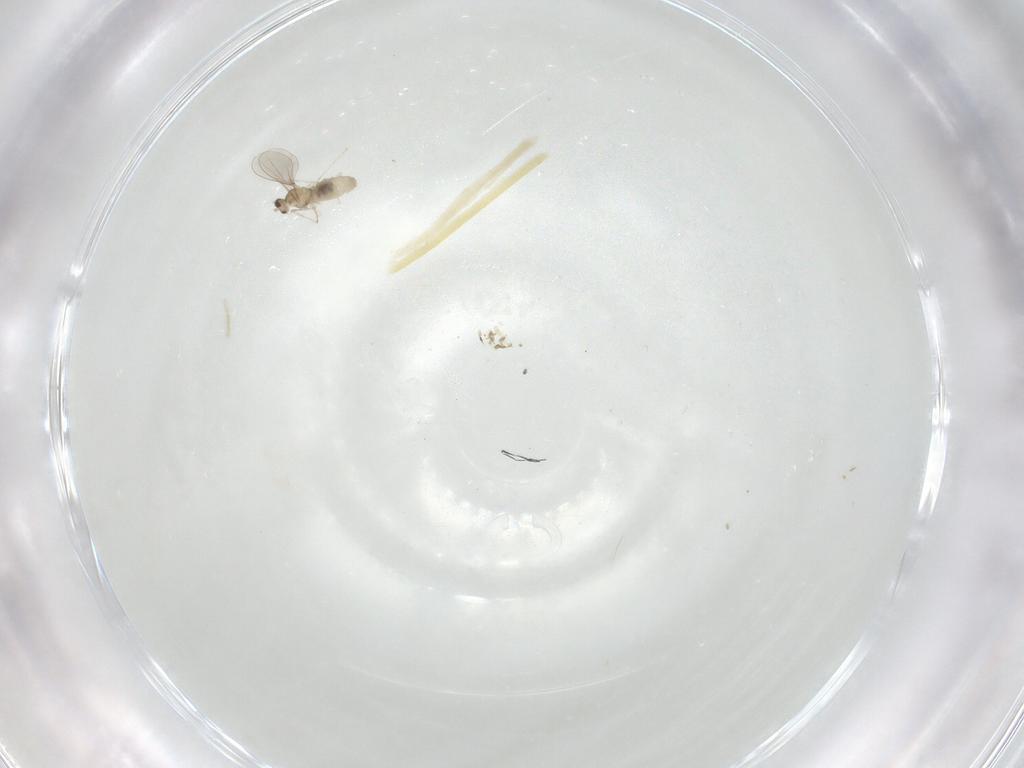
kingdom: Animalia
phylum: Arthropoda
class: Insecta
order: Diptera
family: Cecidomyiidae
